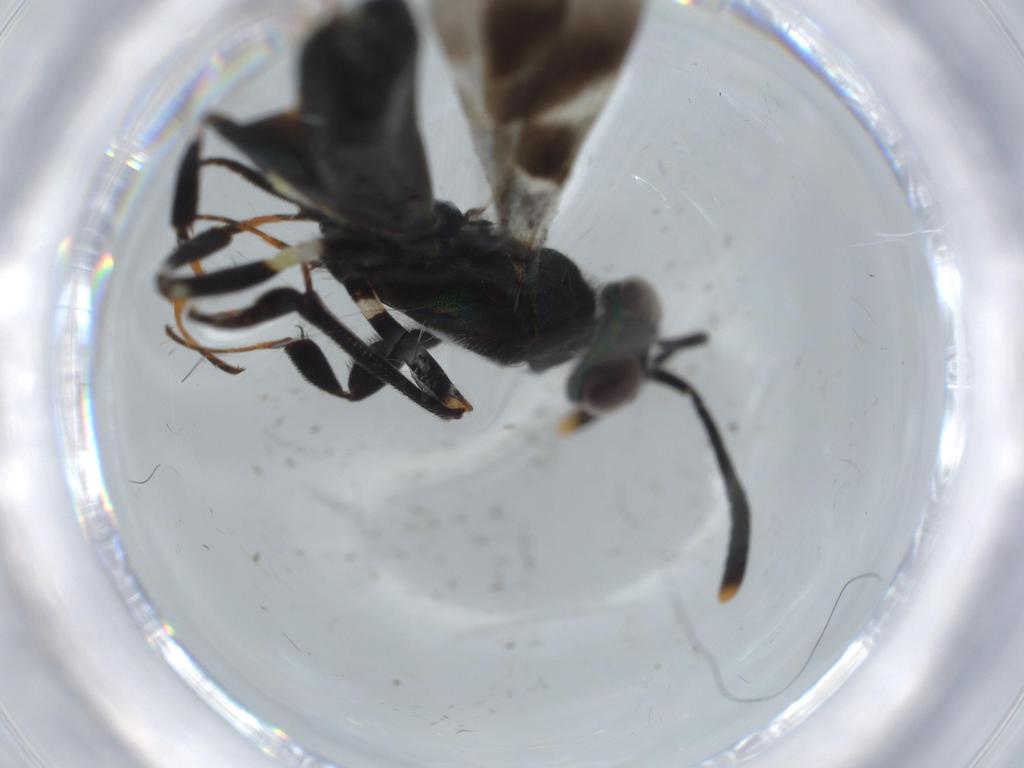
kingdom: Animalia
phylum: Arthropoda
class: Insecta
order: Hymenoptera
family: Eupelmidae
